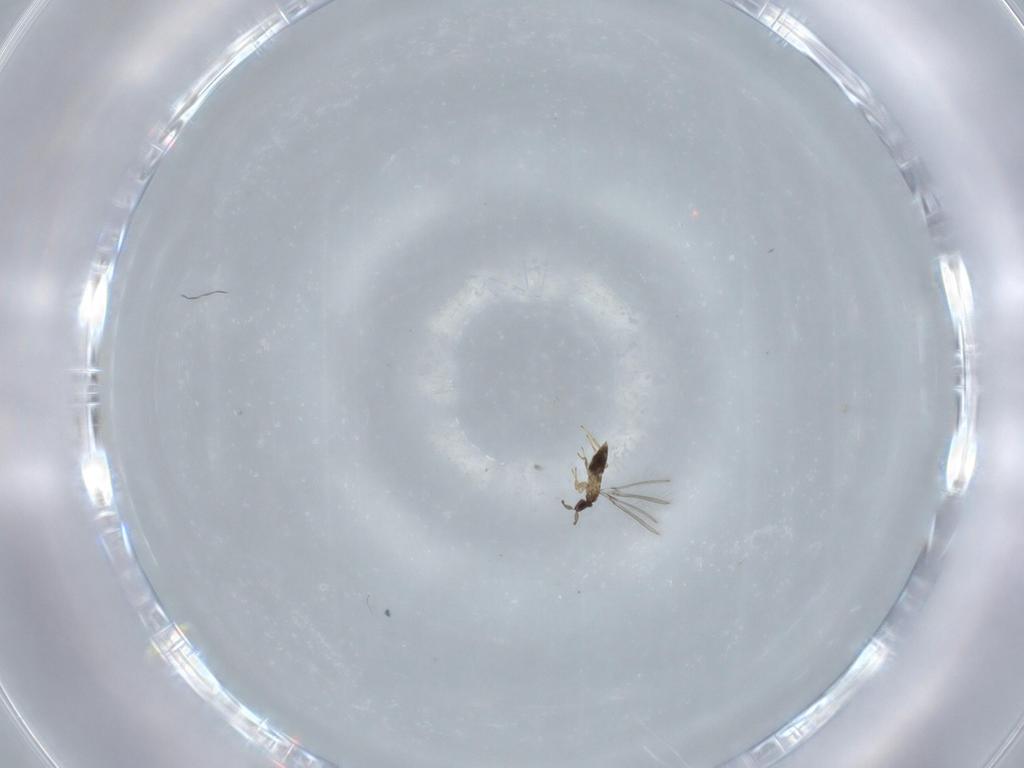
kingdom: Animalia
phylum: Arthropoda
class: Insecta
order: Hymenoptera
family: Mymaridae
